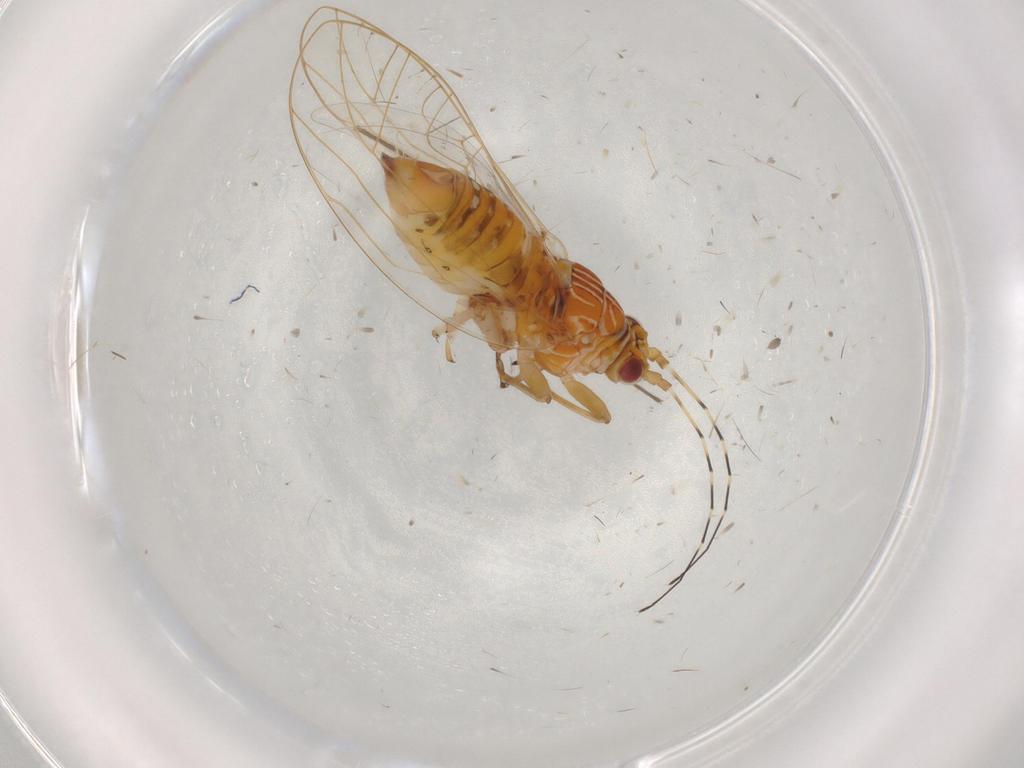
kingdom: Animalia
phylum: Arthropoda
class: Insecta
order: Hemiptera
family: Carsidaridae
